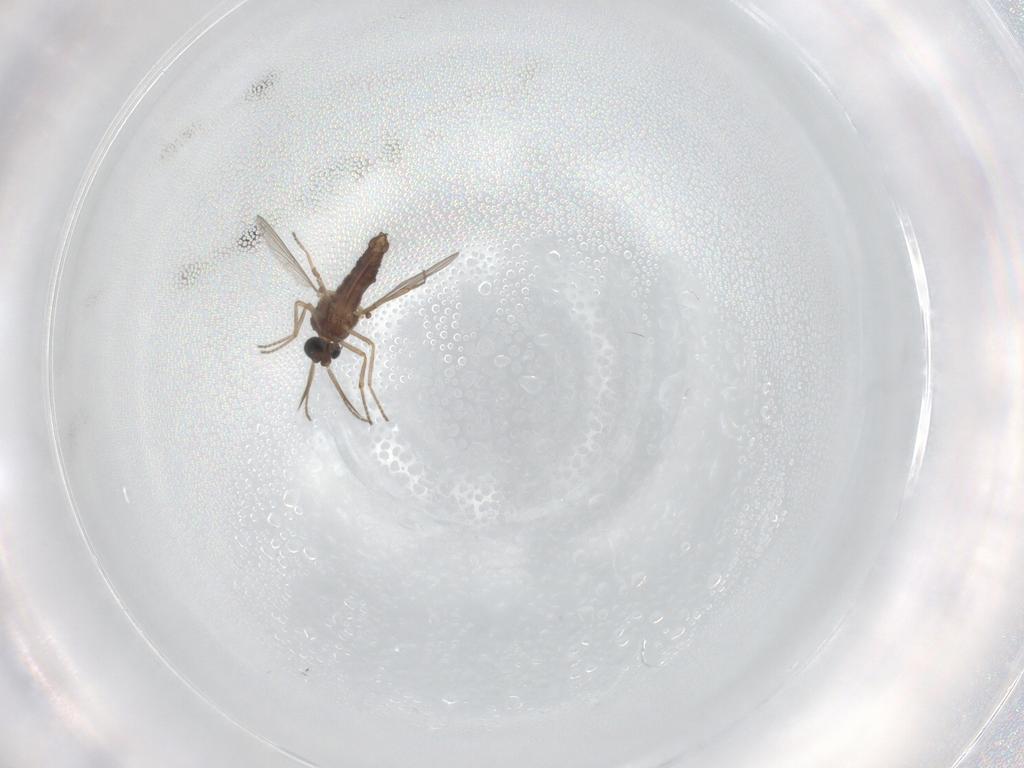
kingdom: Animalia
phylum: Arthropoda
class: Insecta
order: Diptera
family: Ceratopogonidae
